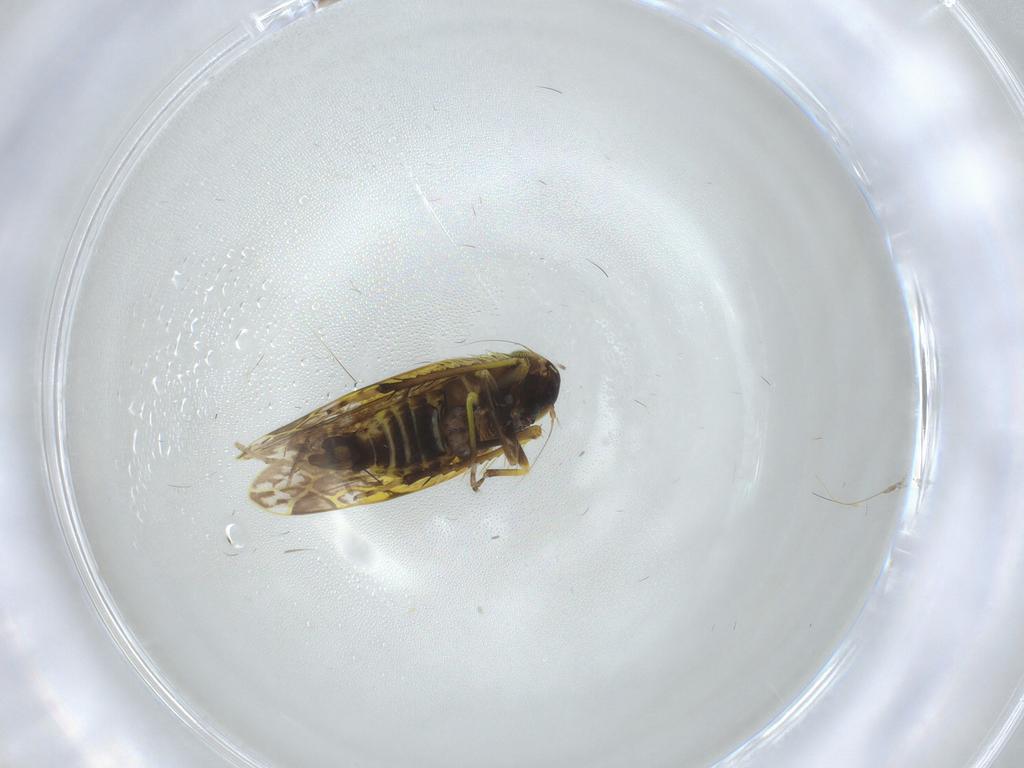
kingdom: Animalia
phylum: Arthropoda
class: Insecta
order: Hemiptera
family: Cicadellidae
